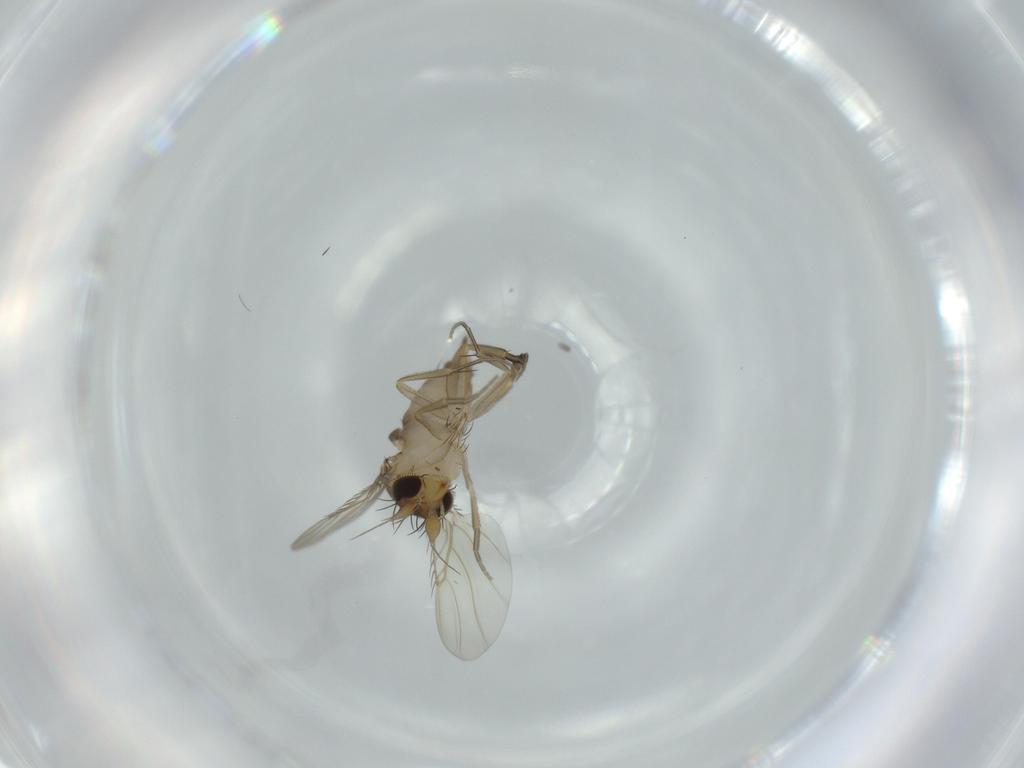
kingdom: Animalia
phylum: Arthropoda
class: Insecta
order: Diptera
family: Phoridae
